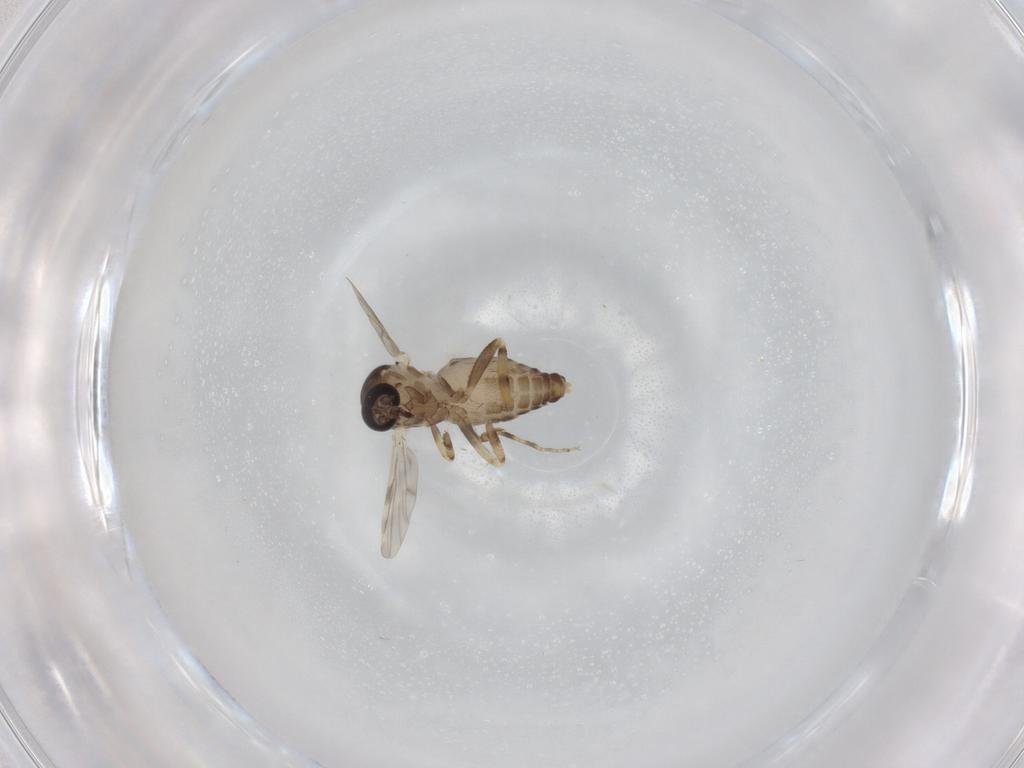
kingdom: Animalia
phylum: Arthropoda
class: Insecta
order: Diptera
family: Ceratopogonidae
